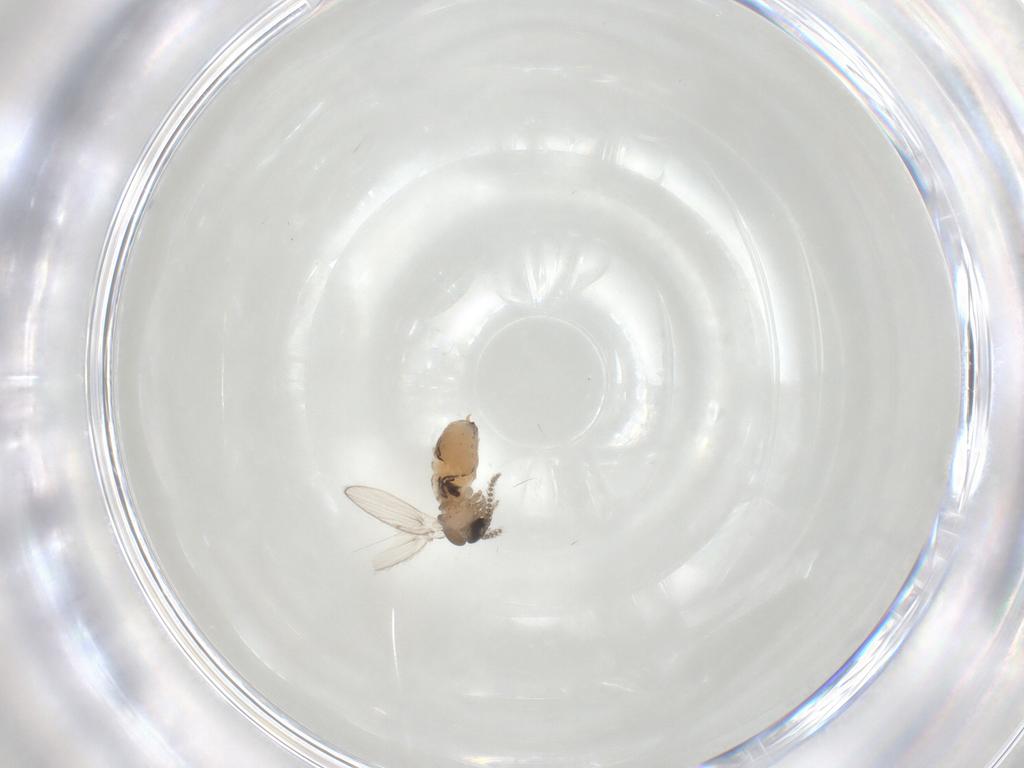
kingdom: Animalia
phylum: Arthropoda
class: Insecta
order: Diptera
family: Psychodidae
